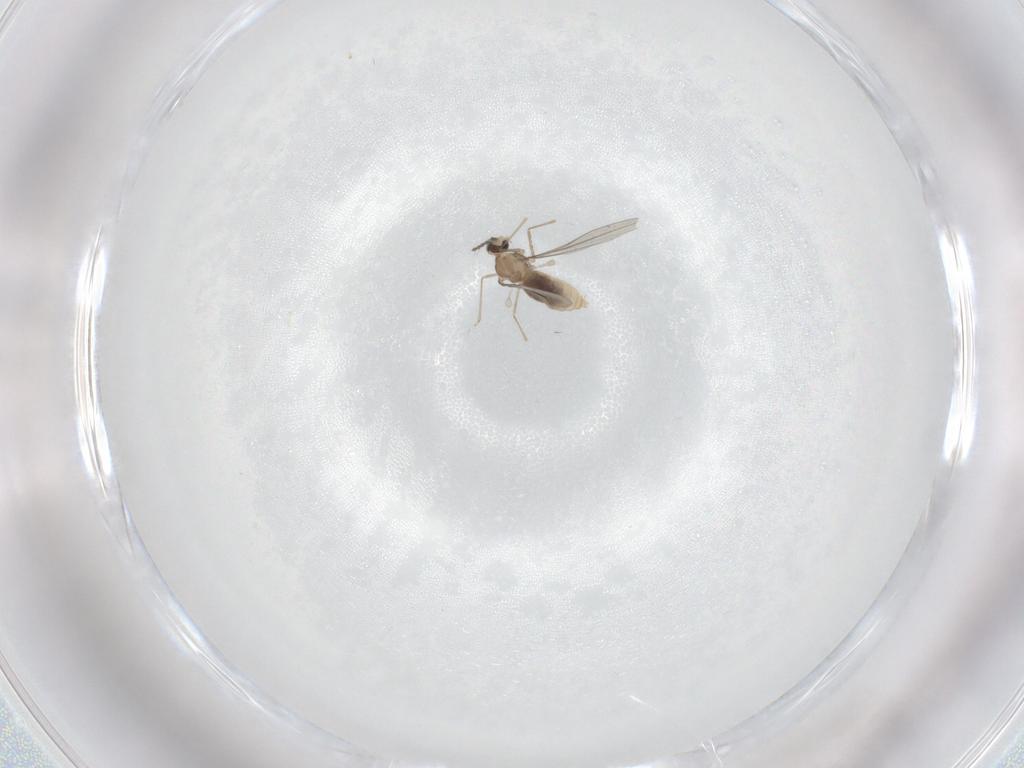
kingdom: Animalia
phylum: Arthropoda
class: Insecta
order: Diptera
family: Cecidomyiidae
